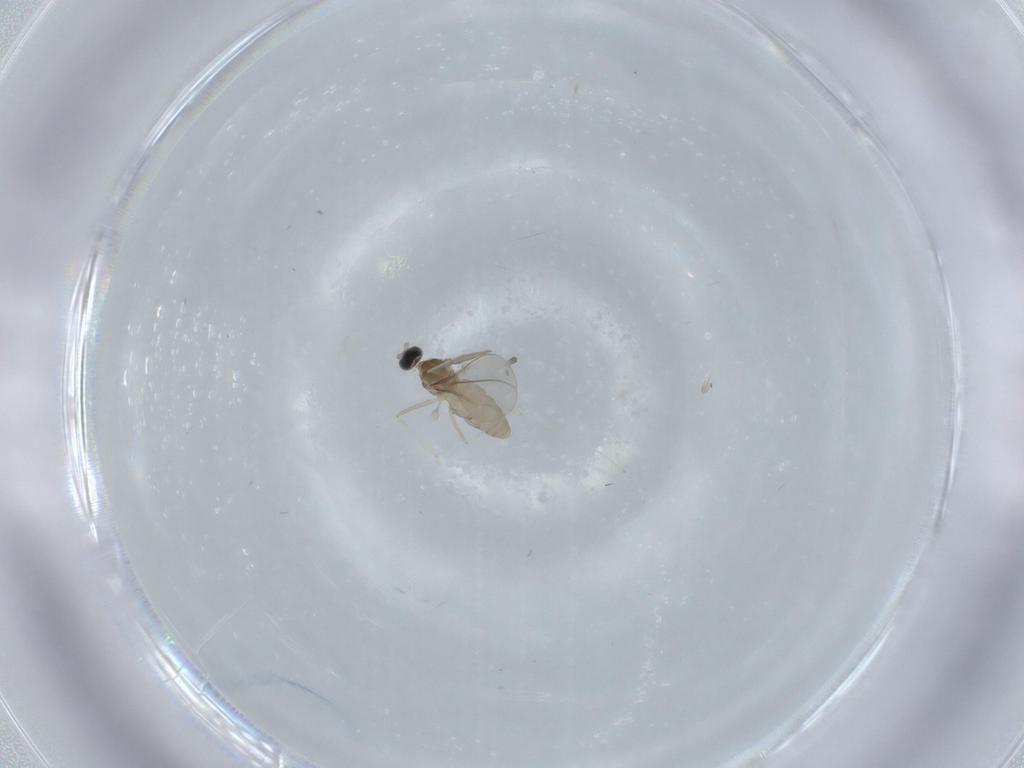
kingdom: Animalia
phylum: Arthropoda
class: Insecta
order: Diptera
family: Cecidomyiidae
